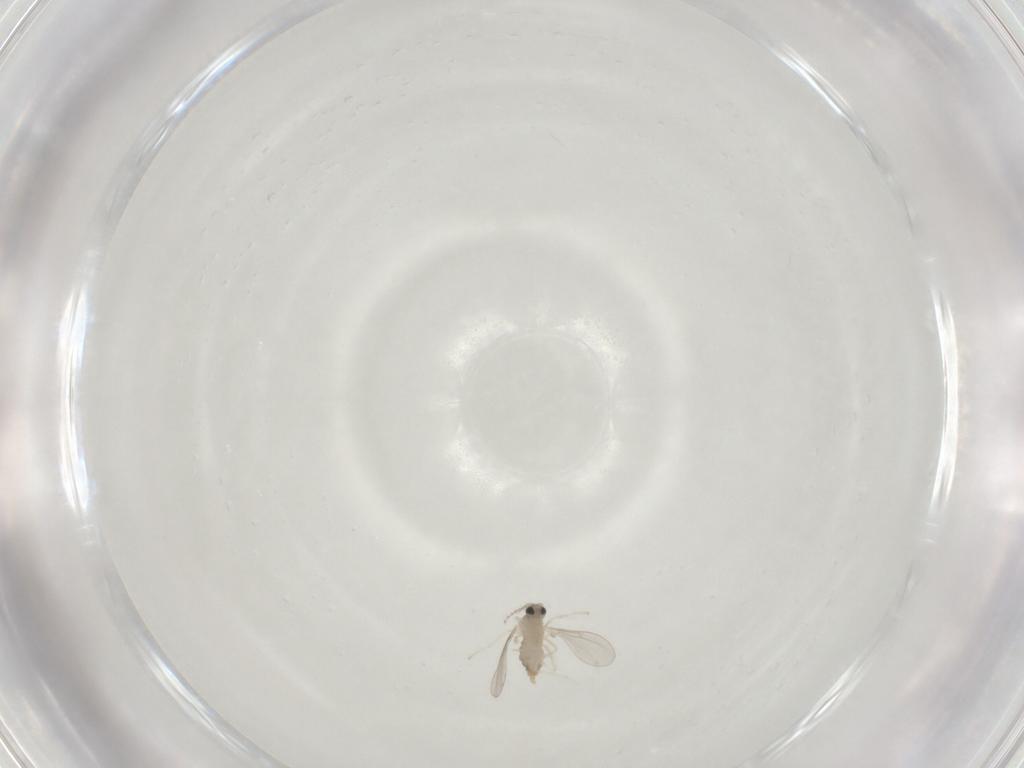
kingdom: Animalia
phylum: Arthropoda
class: Insecta
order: Diptera
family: Cecidomyiidae
